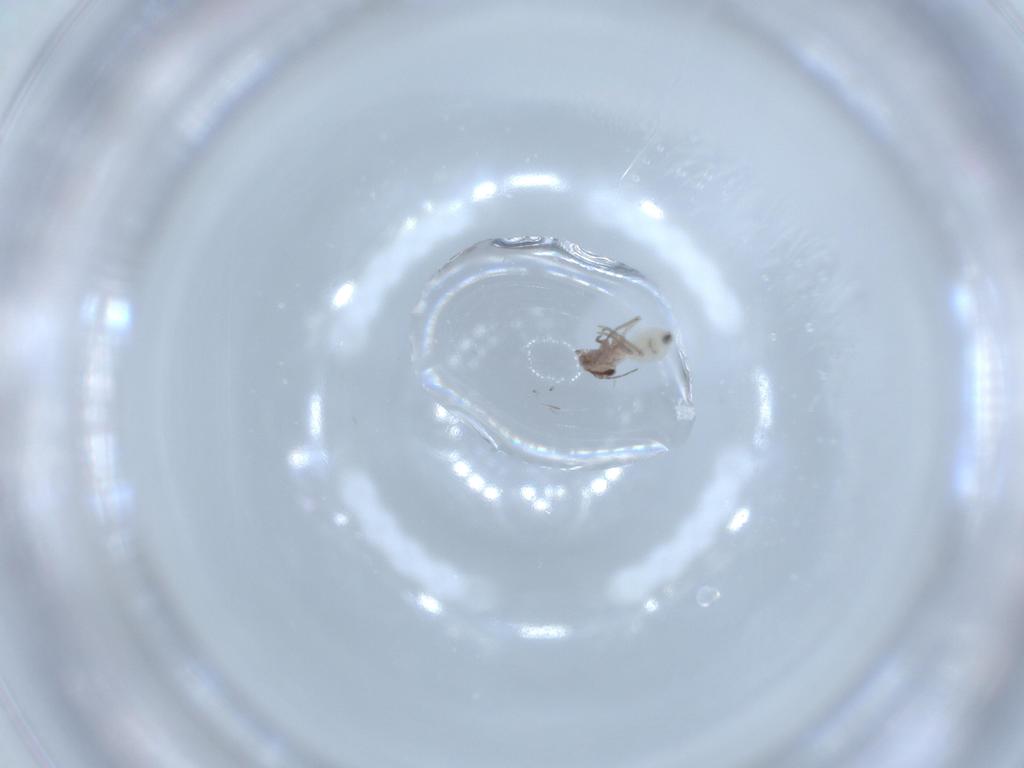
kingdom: Animalia
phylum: Arthropoda
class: Insecta
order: Psocodea
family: Lepidopsocidae
